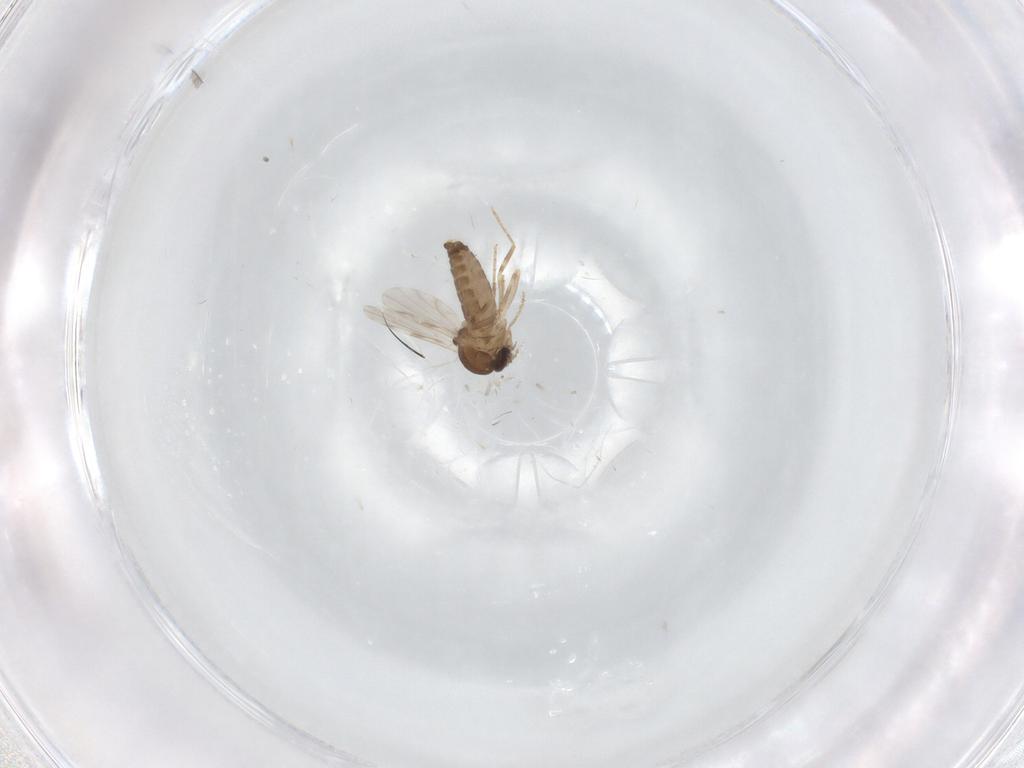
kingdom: Animalia
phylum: Arthropoda
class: Insecta
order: Diptera
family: Ceratopogonidae
